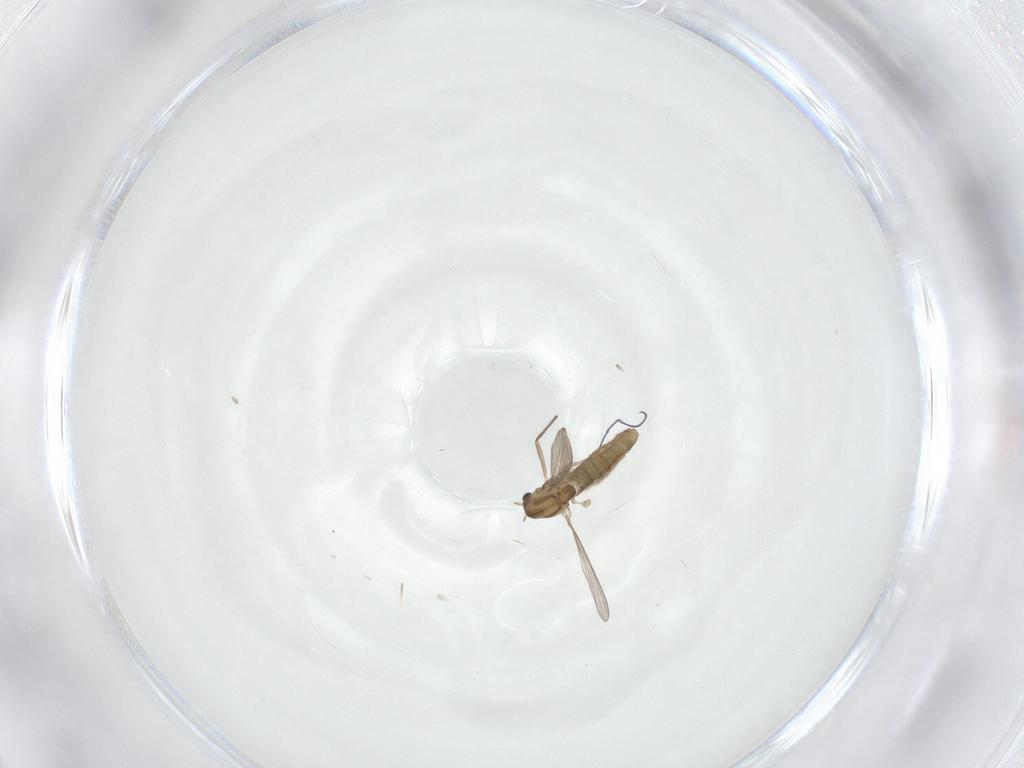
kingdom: Animalia
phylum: Arthropoda
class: Insecta
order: Diptera
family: Chironomidae
